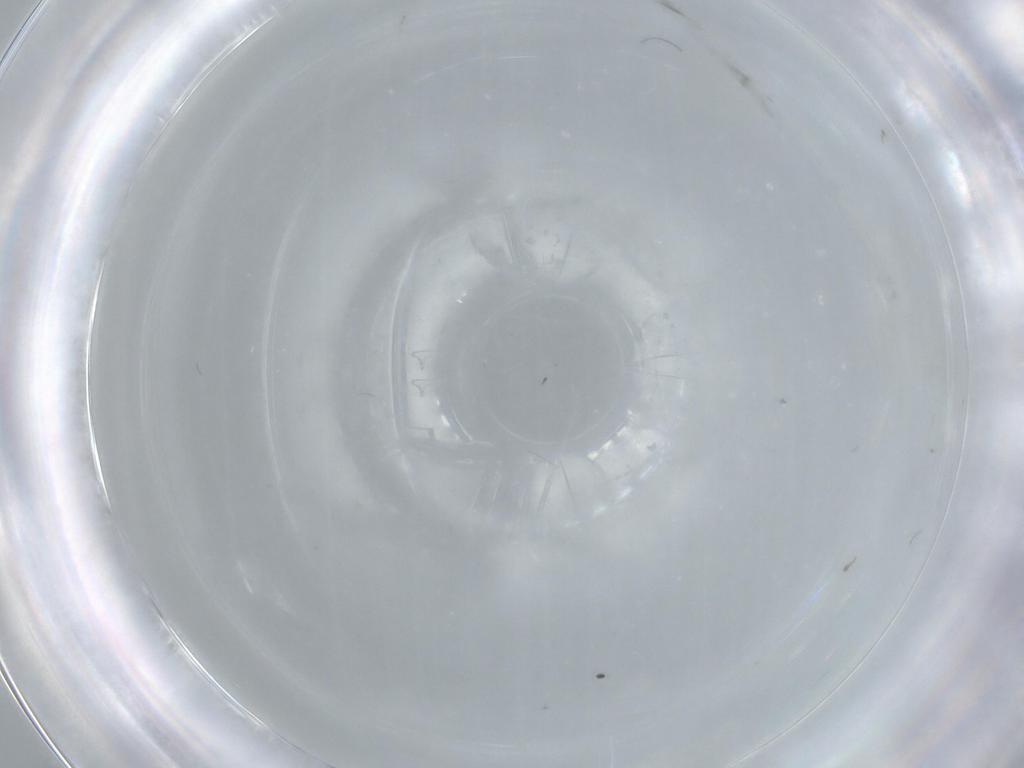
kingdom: Animalia
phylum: Arthropoda
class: Insecta
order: Diptera
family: Sciaridae
